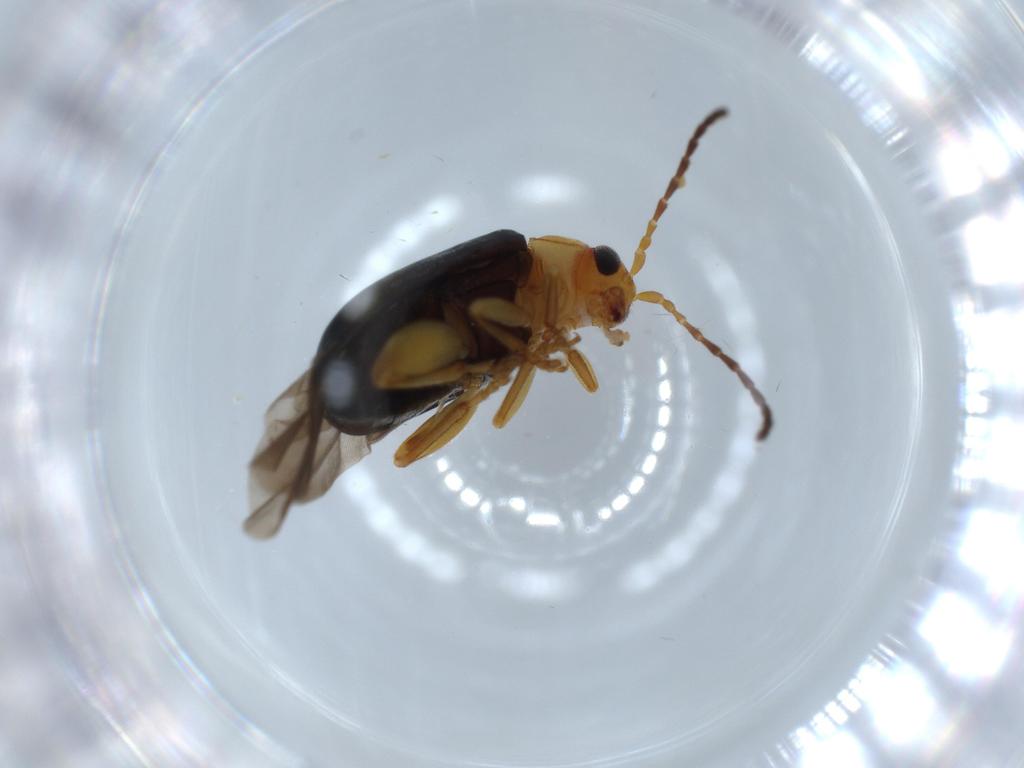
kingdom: Animalia
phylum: Arthropoda
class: Insecta
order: Coleoptera
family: Chrysomelidae
